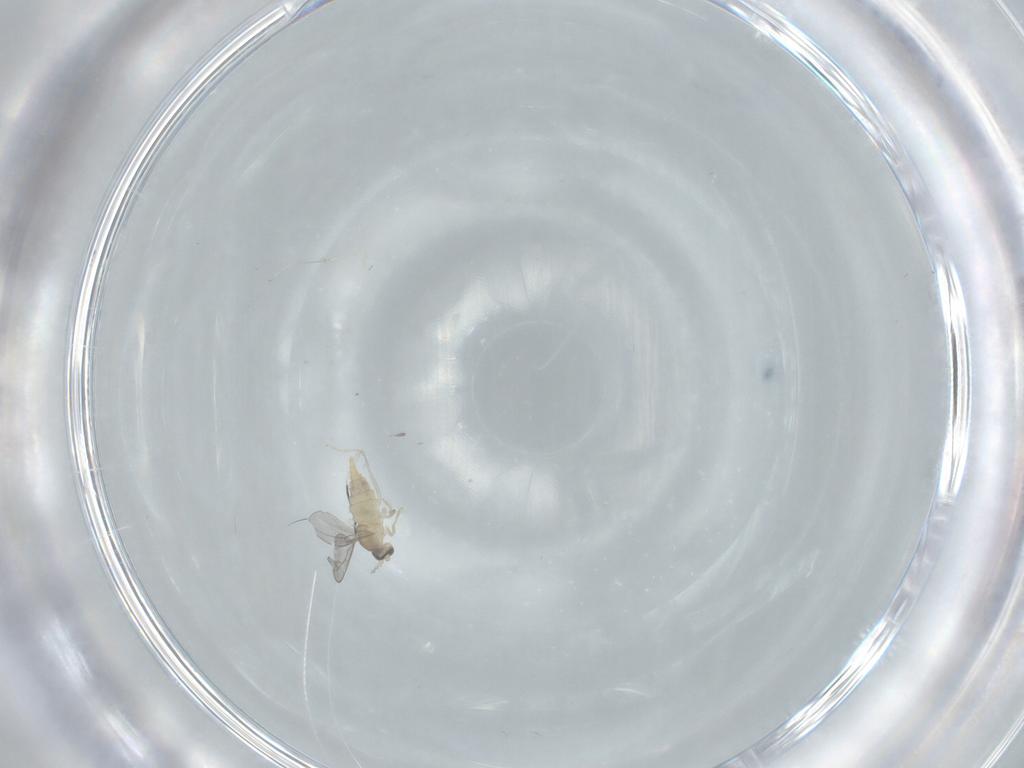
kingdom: Animalia
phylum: Arthropoda
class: Insecta
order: Diptera
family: Cecidomyiidae
